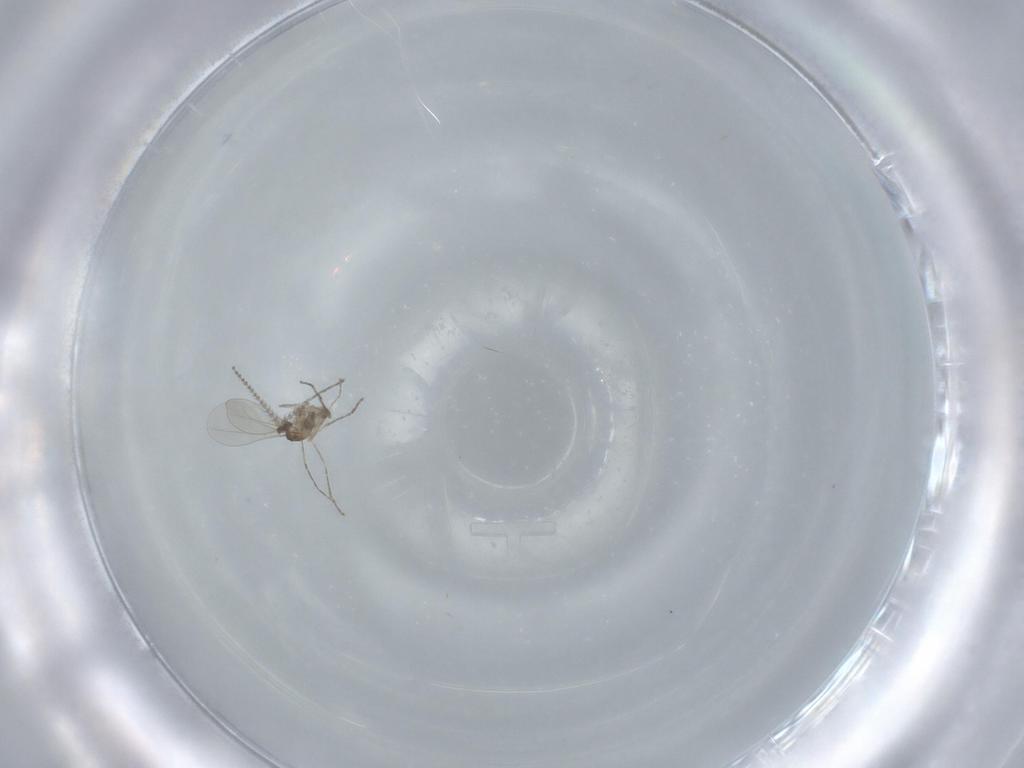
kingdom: Animalia
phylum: Arthropoda
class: Insecta
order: Diptera
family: Cecidomyiidae
